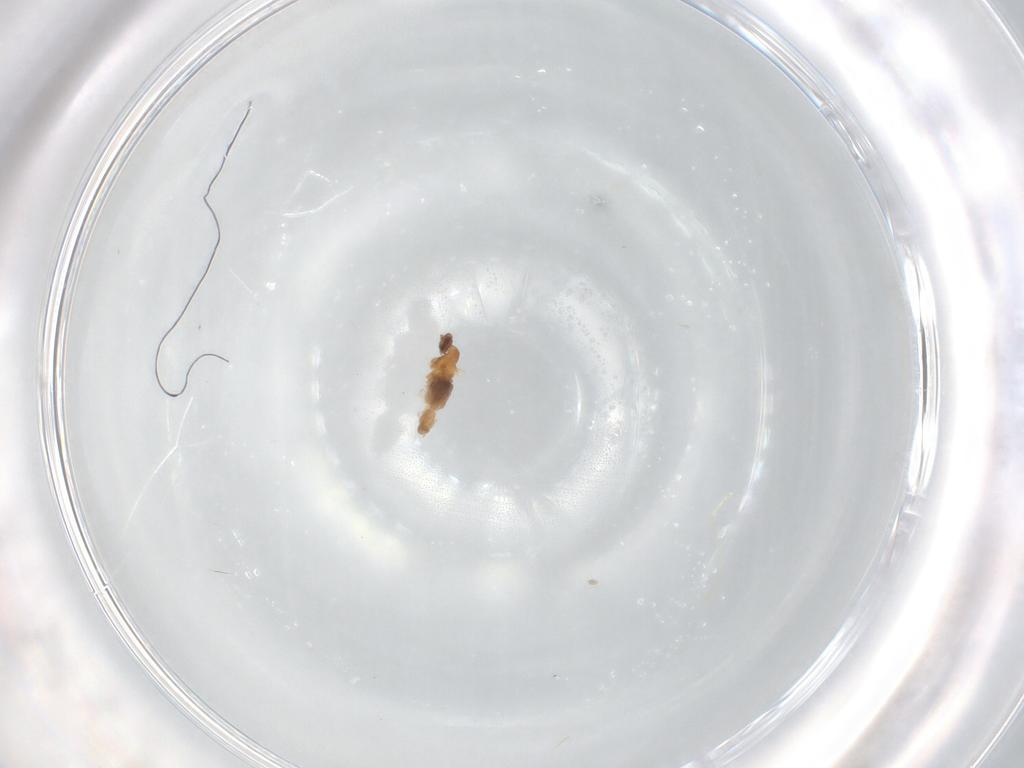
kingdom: Animalia
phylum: Arthropoda
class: Insecta
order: Diptera
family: Cecidomyiidae
